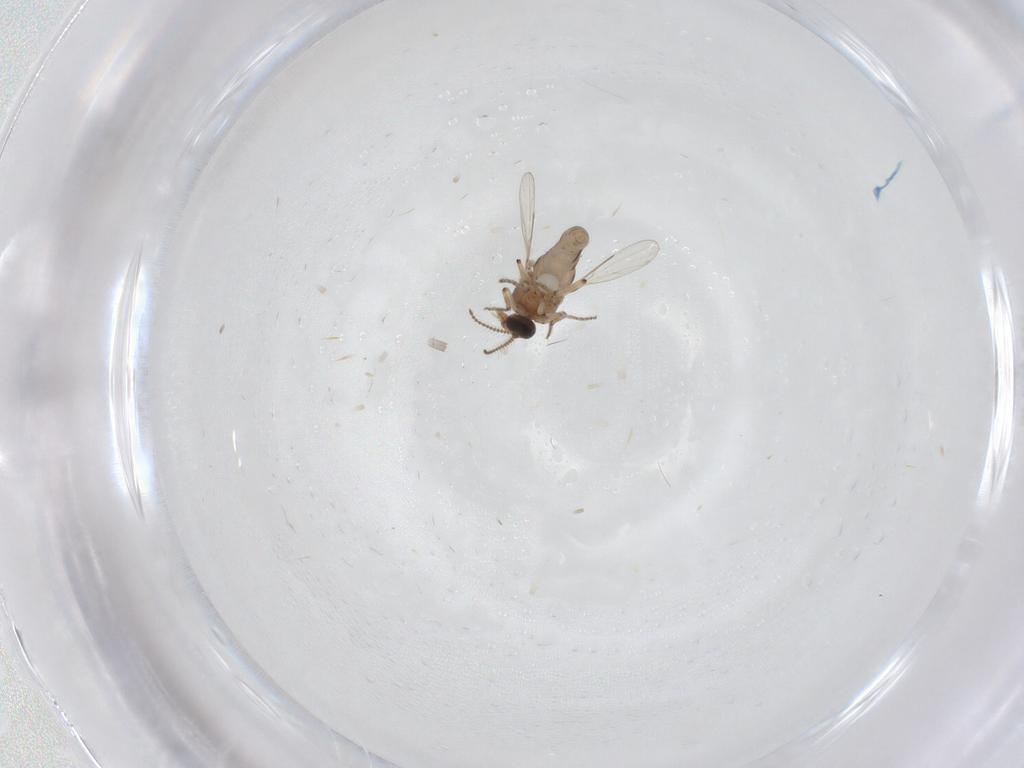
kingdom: Animalia
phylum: Arthropoda
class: Insecta
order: Diptera
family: Ceratopogonidae
